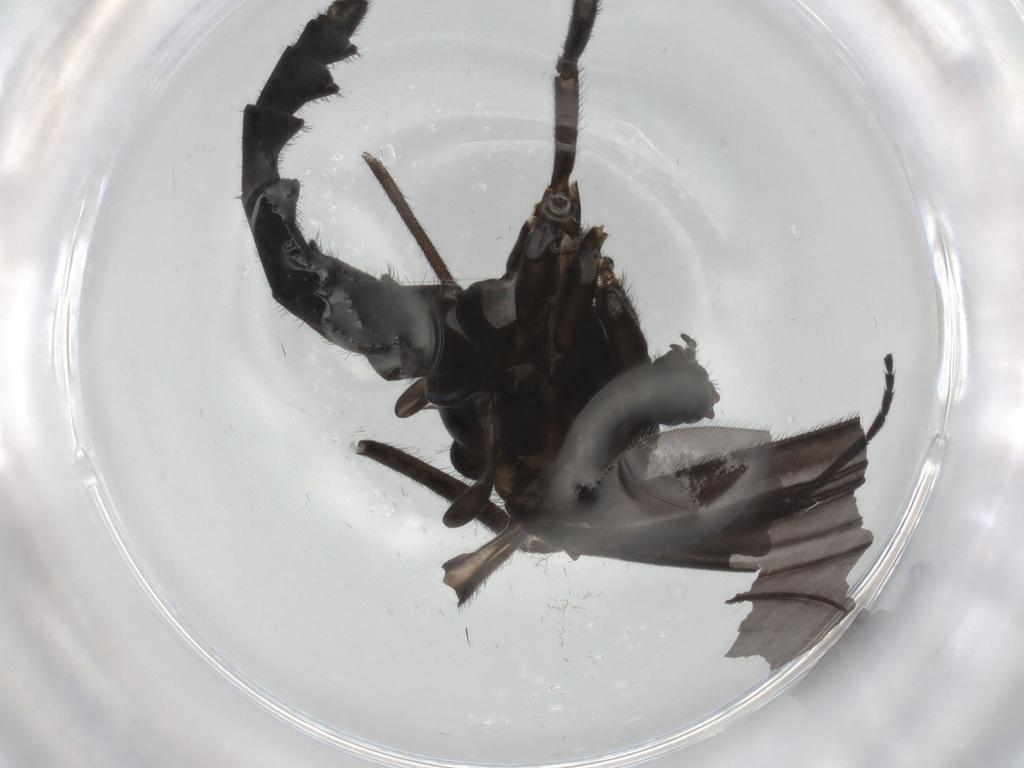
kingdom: Animalia
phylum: Arthropoda
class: Insecta
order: Diptera
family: Sciaridae
